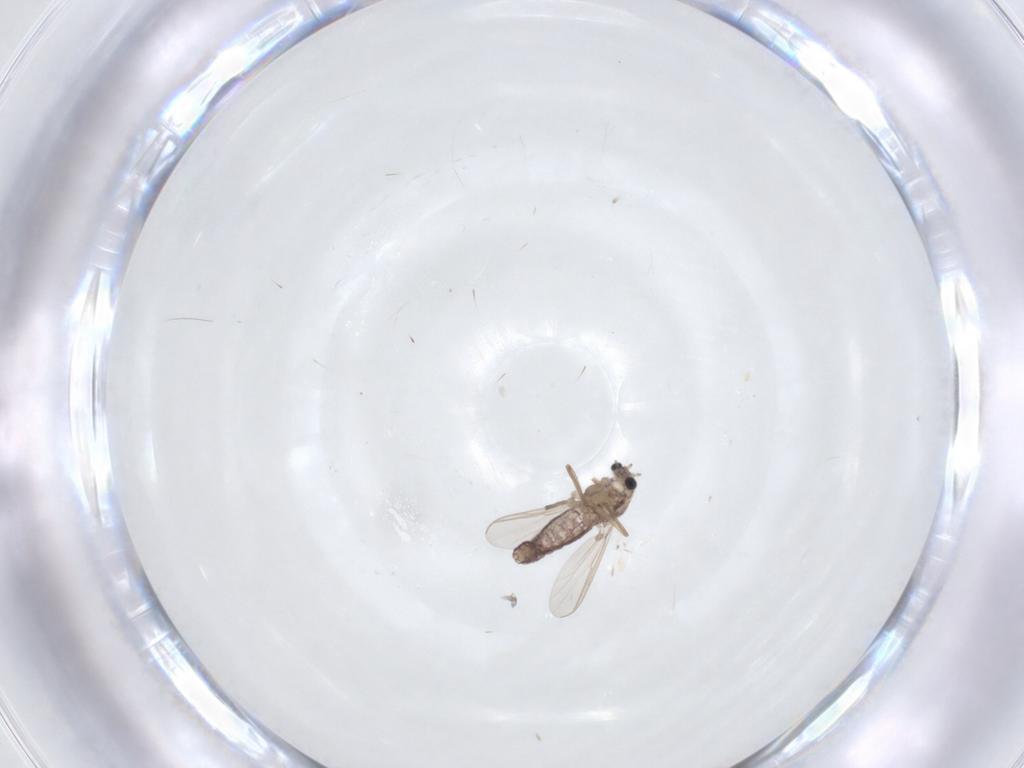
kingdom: Animalia
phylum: Arthropoda
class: Insecta
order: Diptera
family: Chironomidae
